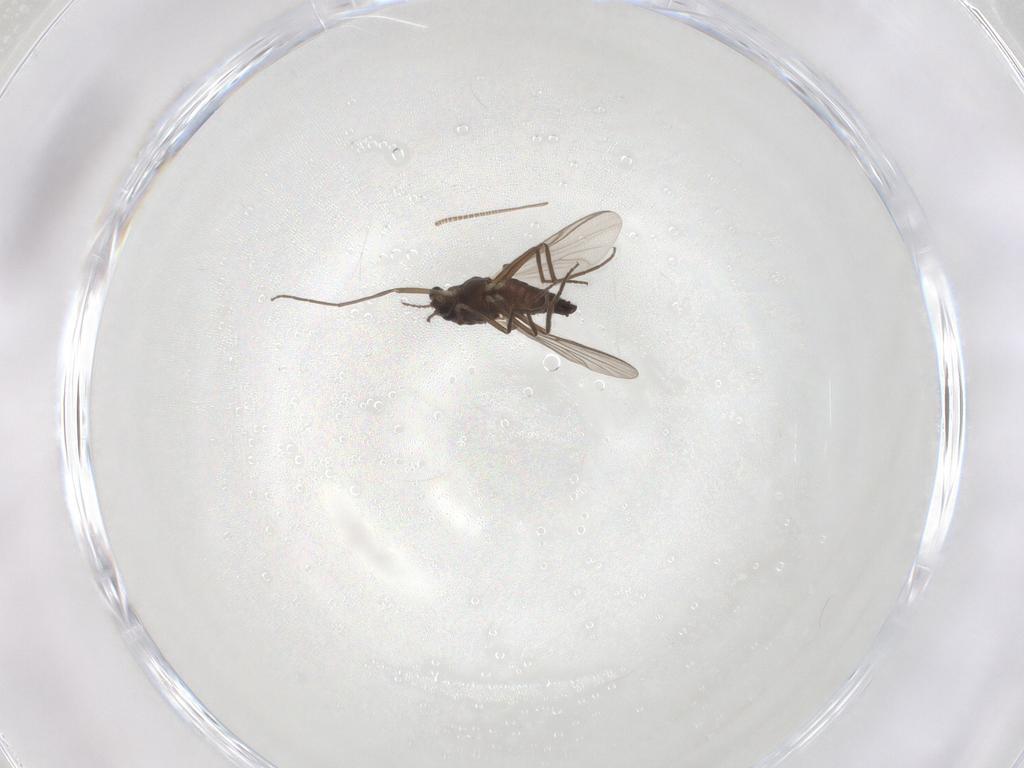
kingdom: Animalia
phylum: Arthropoda
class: Insecta
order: Diptera
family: Chironomidae
